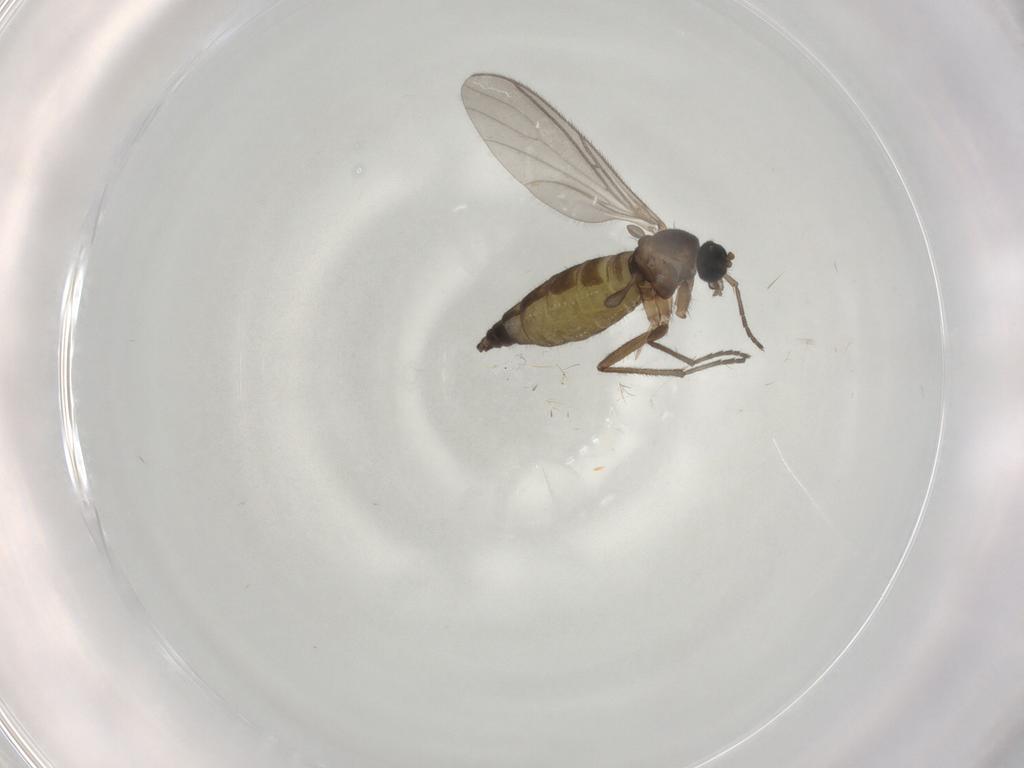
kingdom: Animalia
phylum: Arthropoda
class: Insecta
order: Diptera
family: Sciaridae
